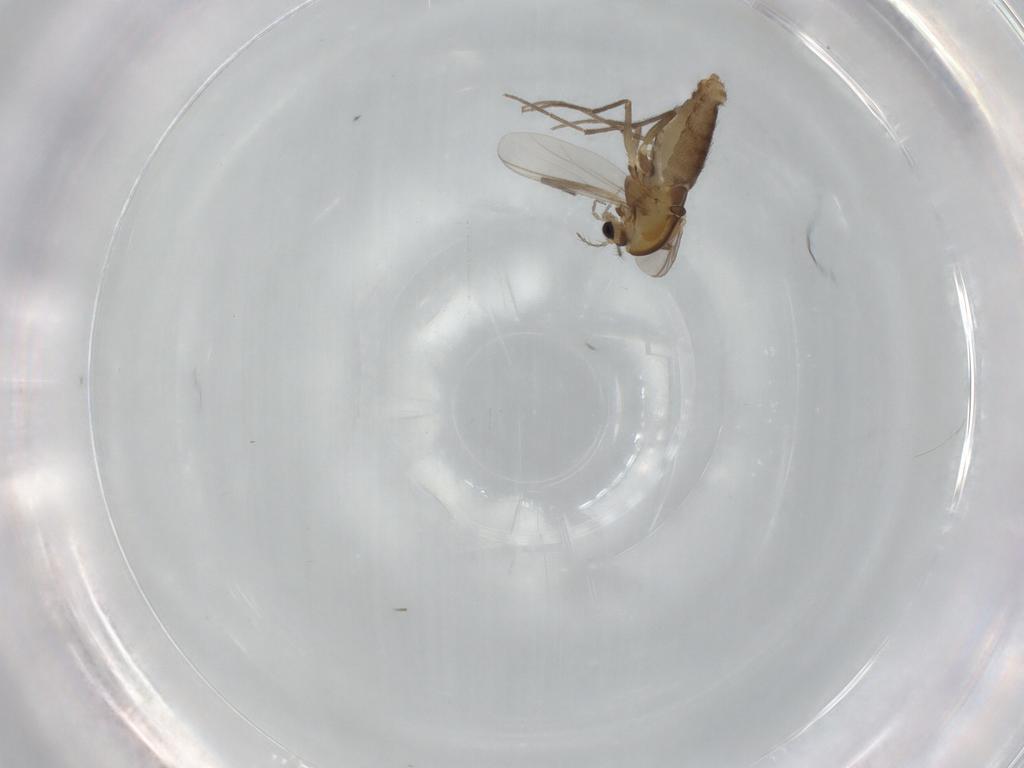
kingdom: Animalia
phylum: Arthropoda
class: Insecta
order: Diptera
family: Chironomidae
